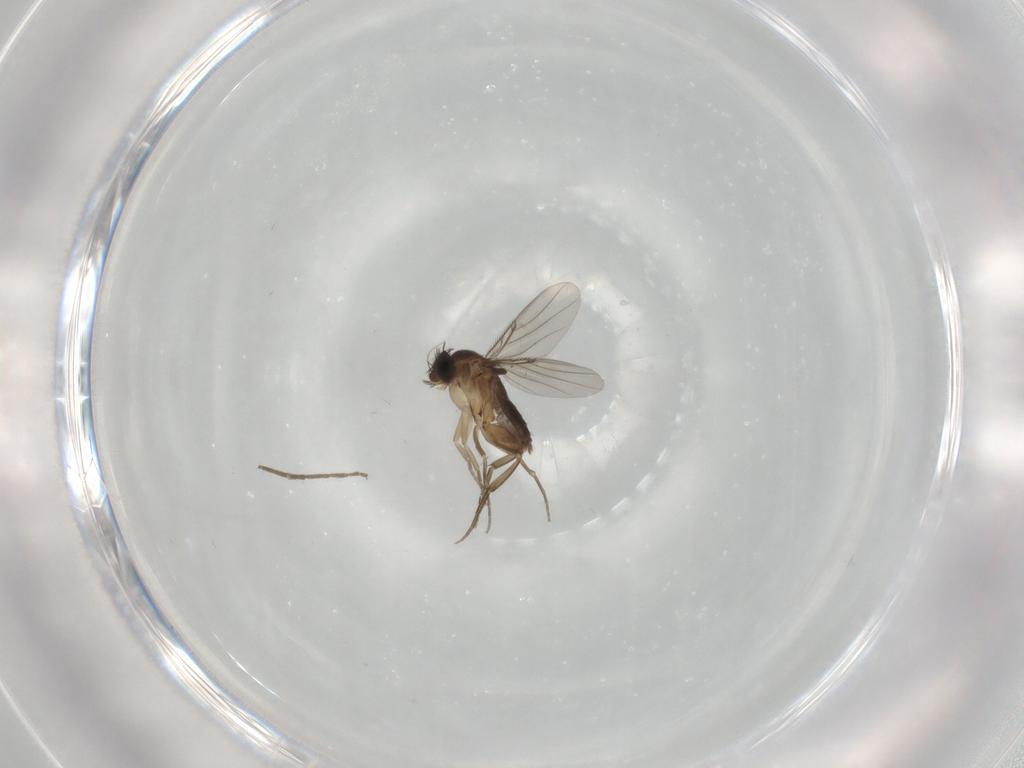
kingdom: Animalia
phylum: Arthropoda
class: Insecta
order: Diptera
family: Phoridae
